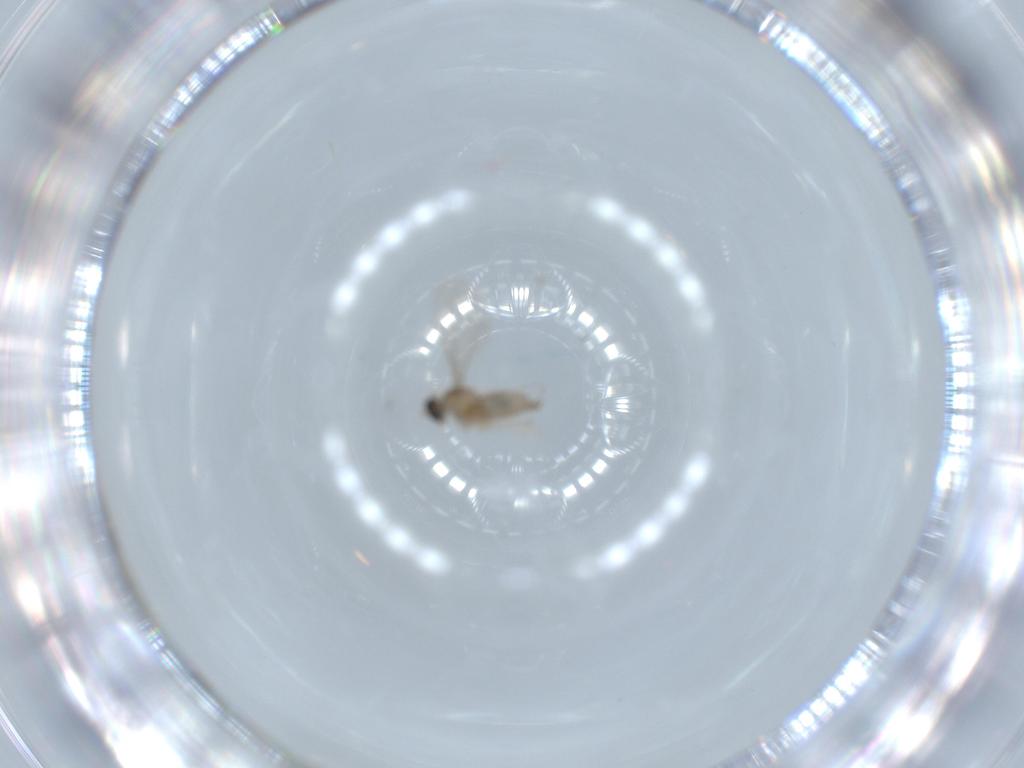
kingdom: Animalia
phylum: Arthropoda
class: Insecta
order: Diptera
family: Cecidomyiidae
